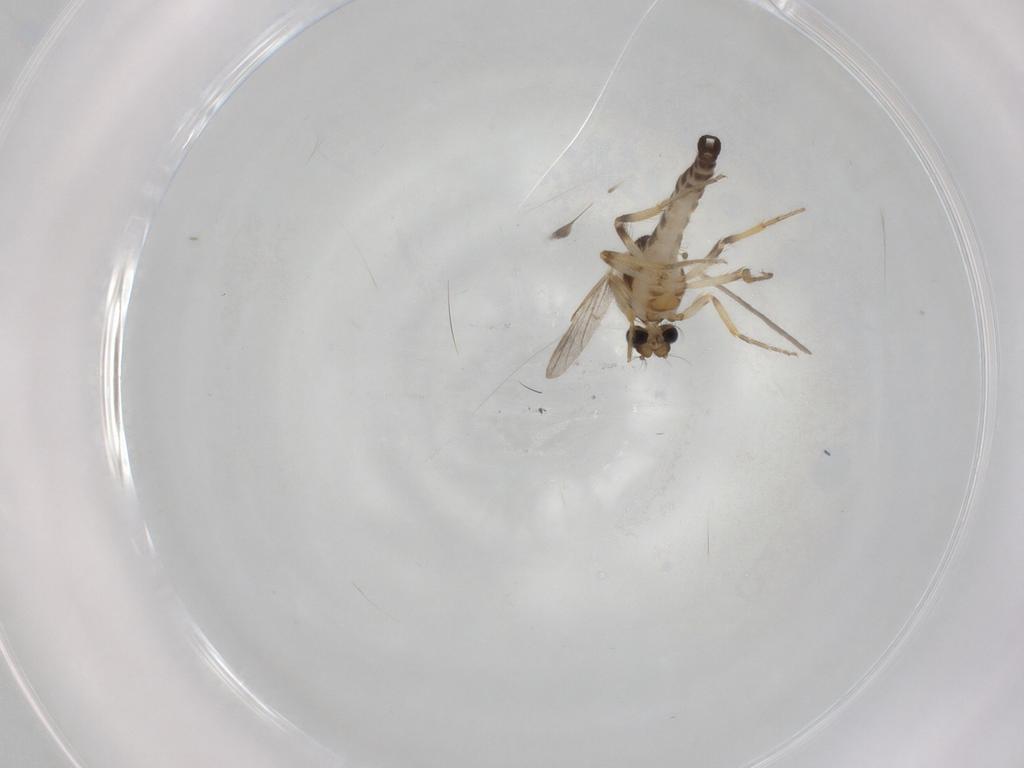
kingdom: Animalia
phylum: Arthropoda
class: Insecta
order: Diptera
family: Ceratopogonidae
